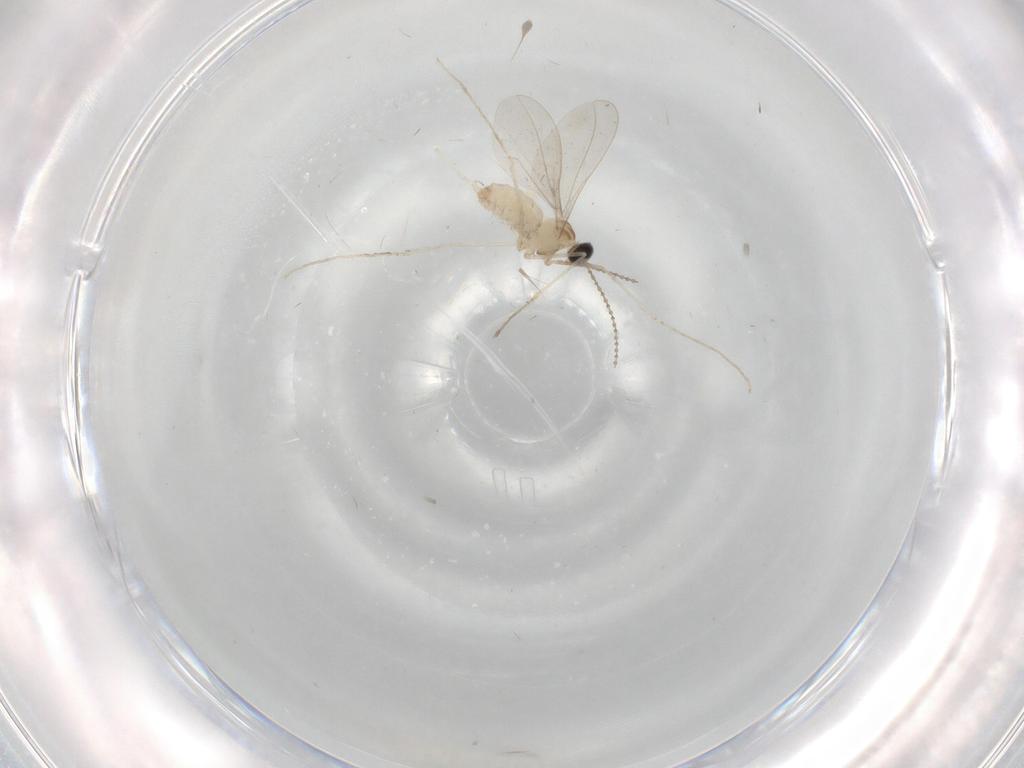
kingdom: Animalia
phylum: Arthropoda
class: Insecta
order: Diptera
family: Cecidomyiidae
